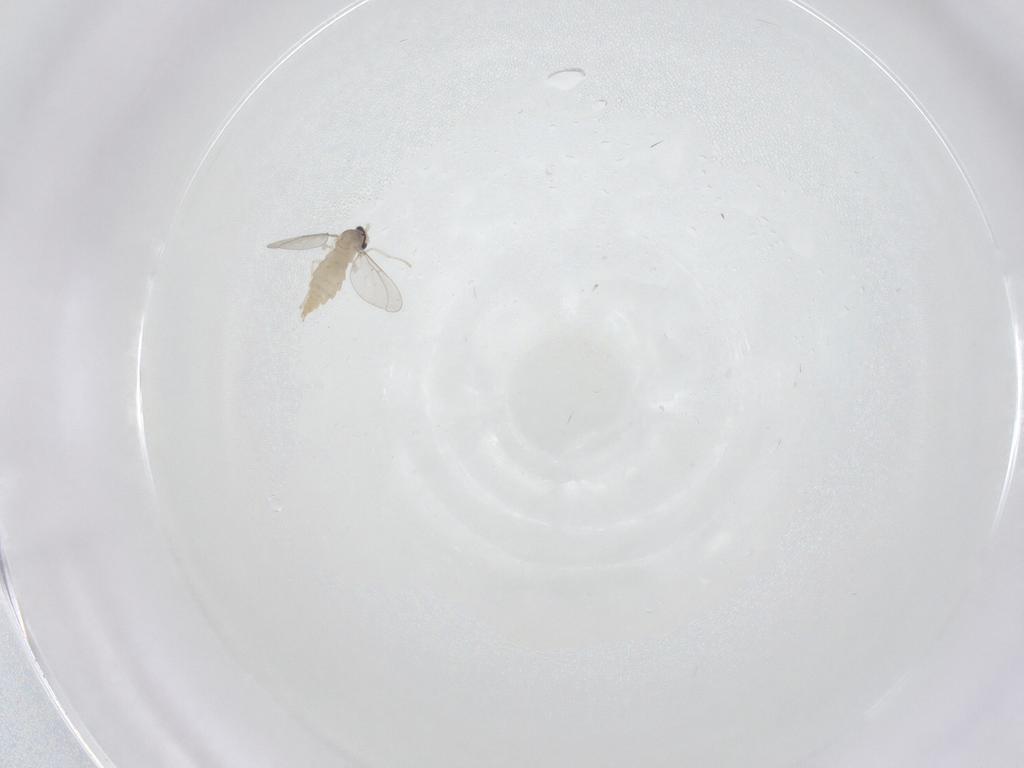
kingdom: Animalia
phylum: Arthropoda
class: Insecta
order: Diptera
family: Cecidomyiidae
